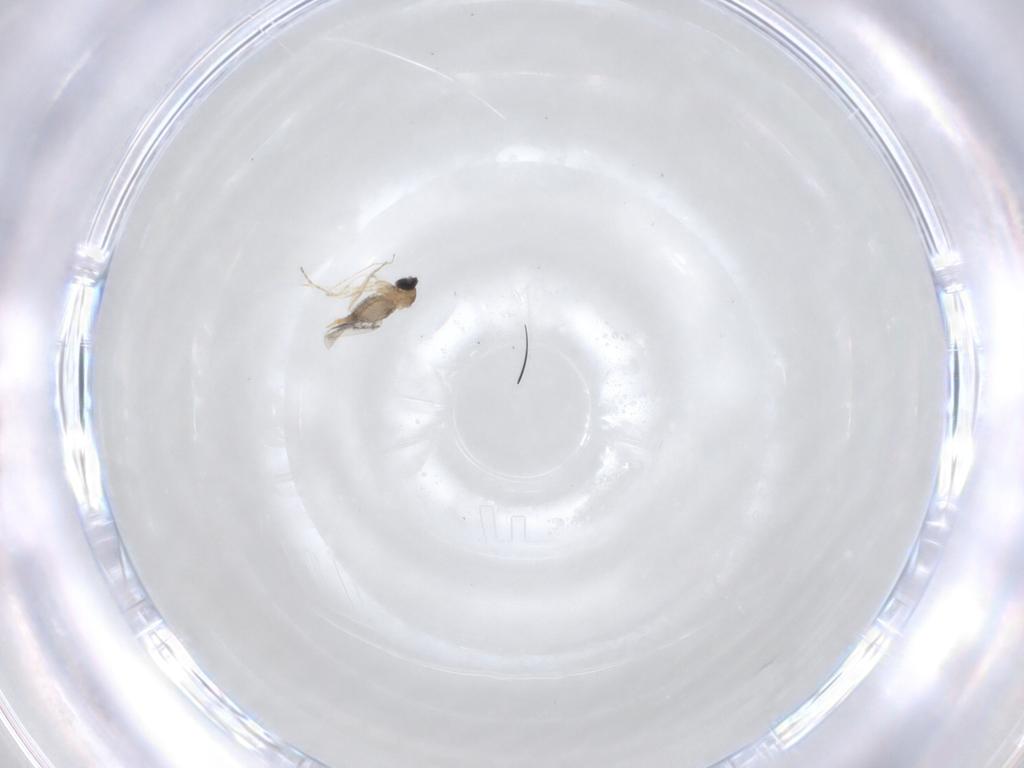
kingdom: Animalia
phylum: Arthropoda
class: Insecta
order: Diptera
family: Cecidomyiidae
